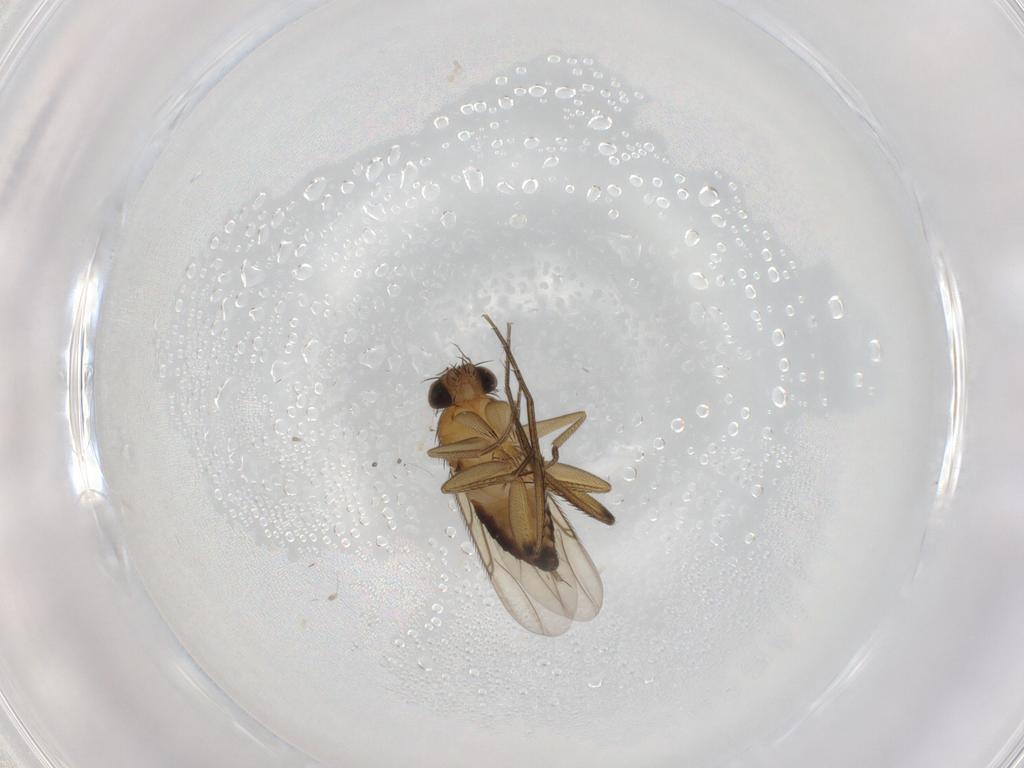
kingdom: Animalia
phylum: Arthropoda
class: Insecta
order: Diptera
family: Phoridae
